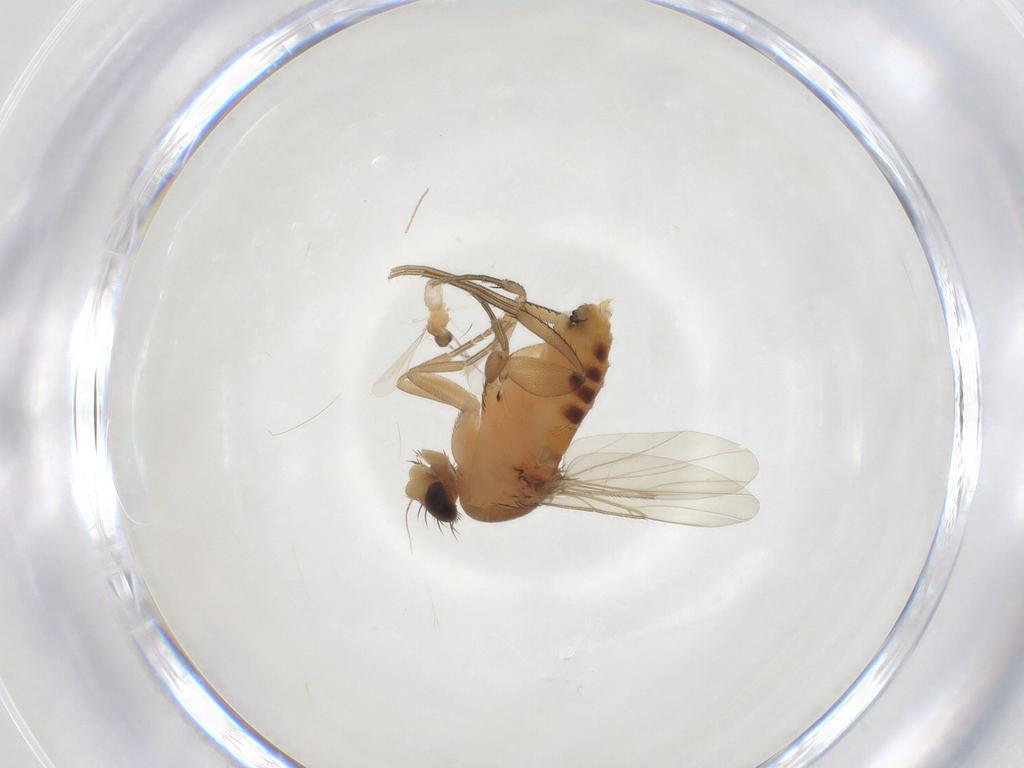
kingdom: Animalia
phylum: Arthropoda
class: Insecta
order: Diptera
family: Phoridae
